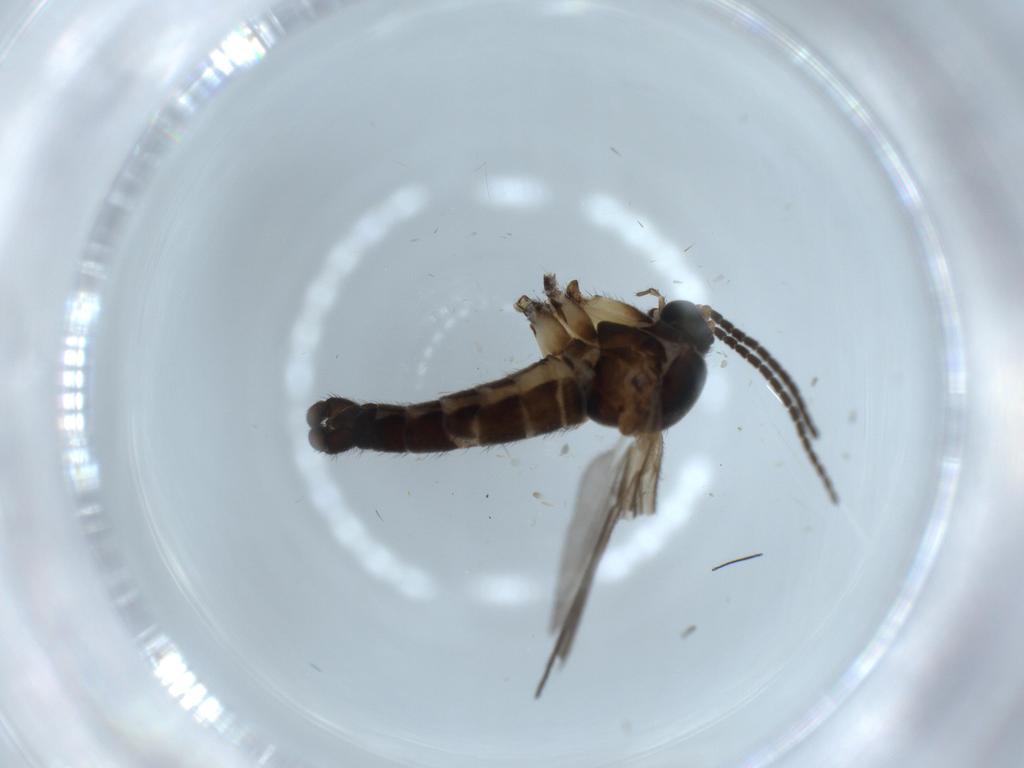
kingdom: Animalia
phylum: Arthropoda
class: Insecta
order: Diptera
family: Sciaridae
